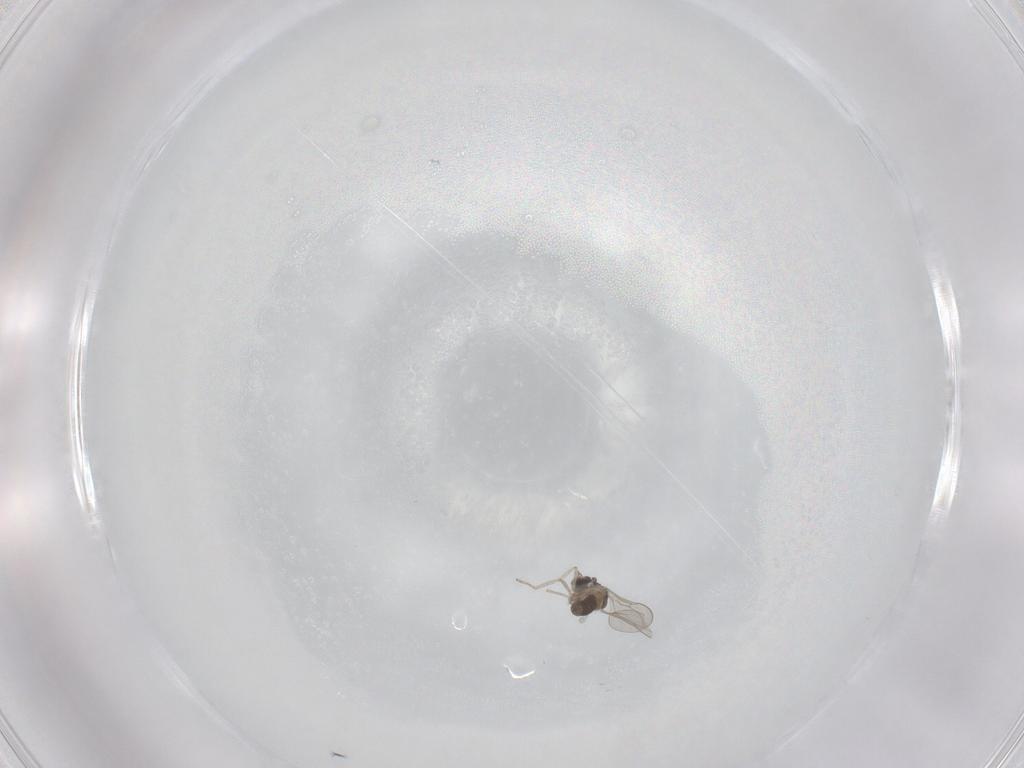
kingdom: Animalia
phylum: Arthropoda
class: Insecta
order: Diptera
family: Cecidomyiidae
